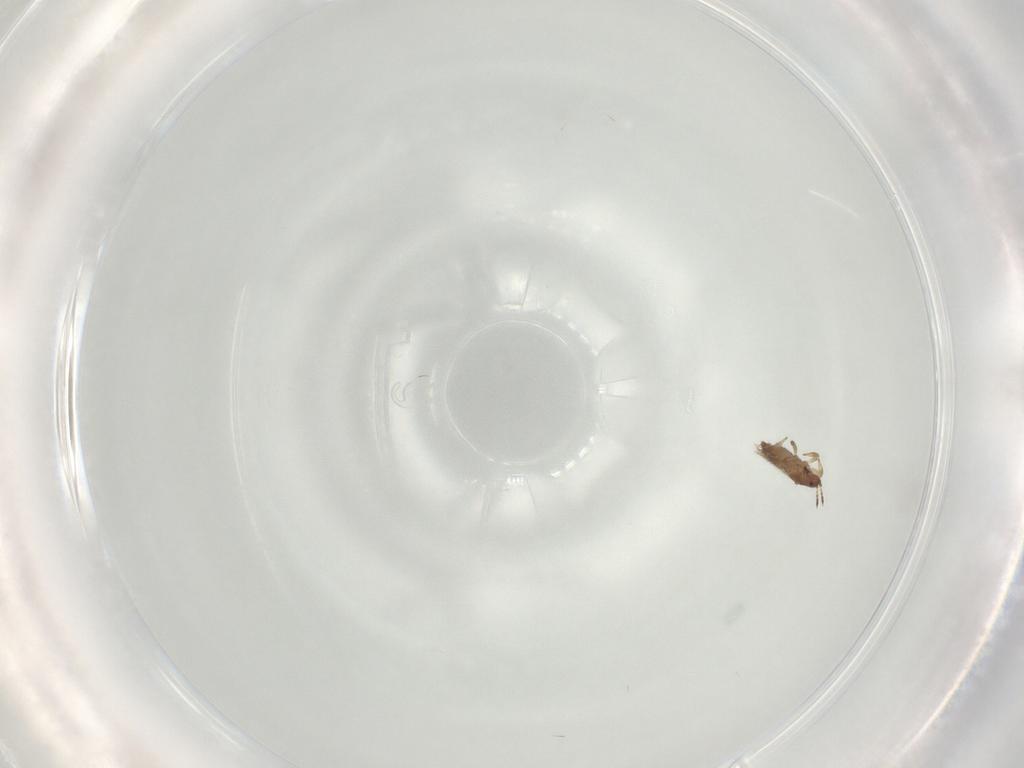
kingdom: Animalia
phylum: Arthropoda
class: Insecta
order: Thysanoptera
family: Thripidae
